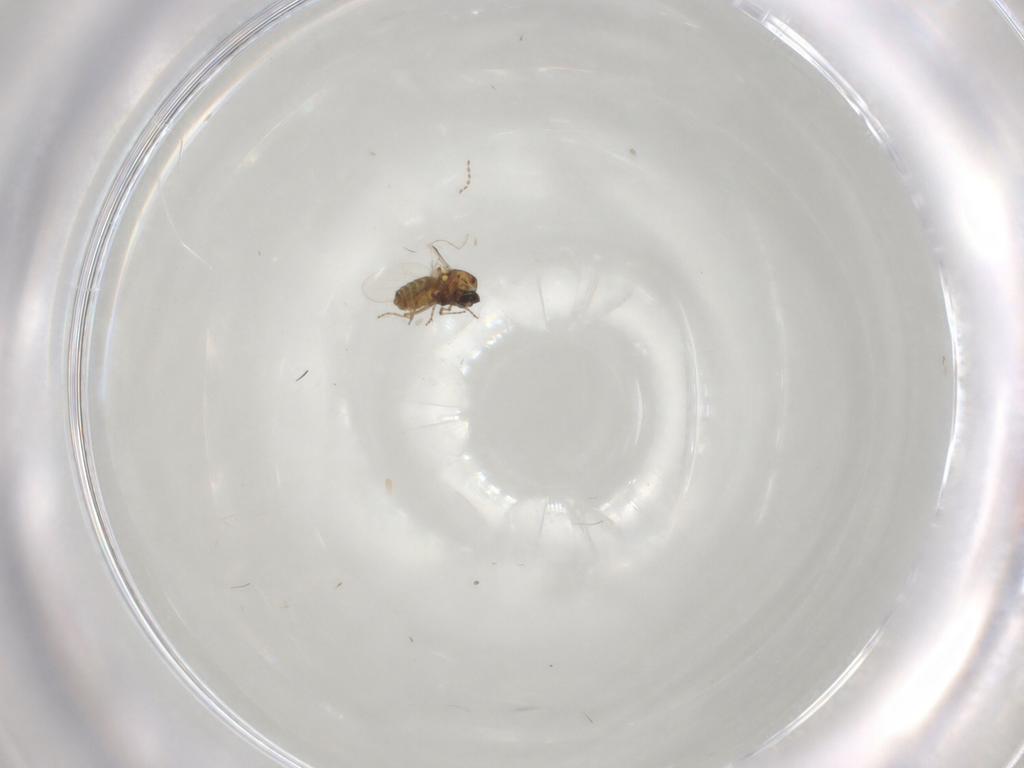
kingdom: Animalia
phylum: Arthropoda
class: Insecta
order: Diptera
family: Ceratopogonidae
